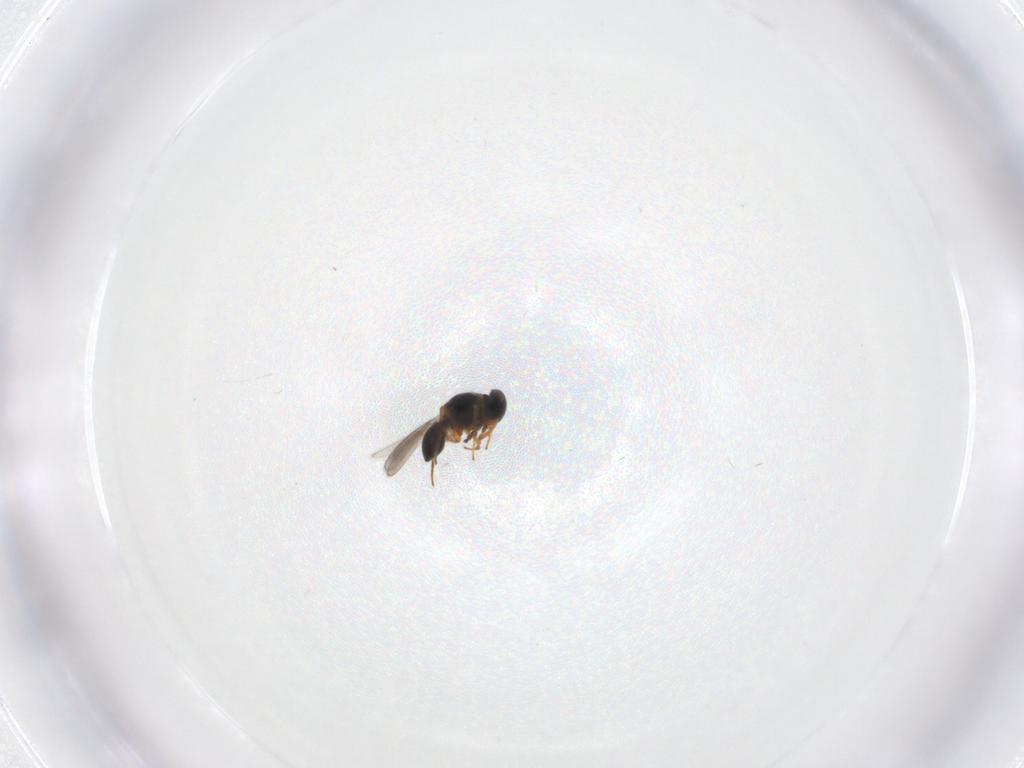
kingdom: Animalia
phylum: Arthropoda
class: Insecta
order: Hymenoptera
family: Platygastridae
